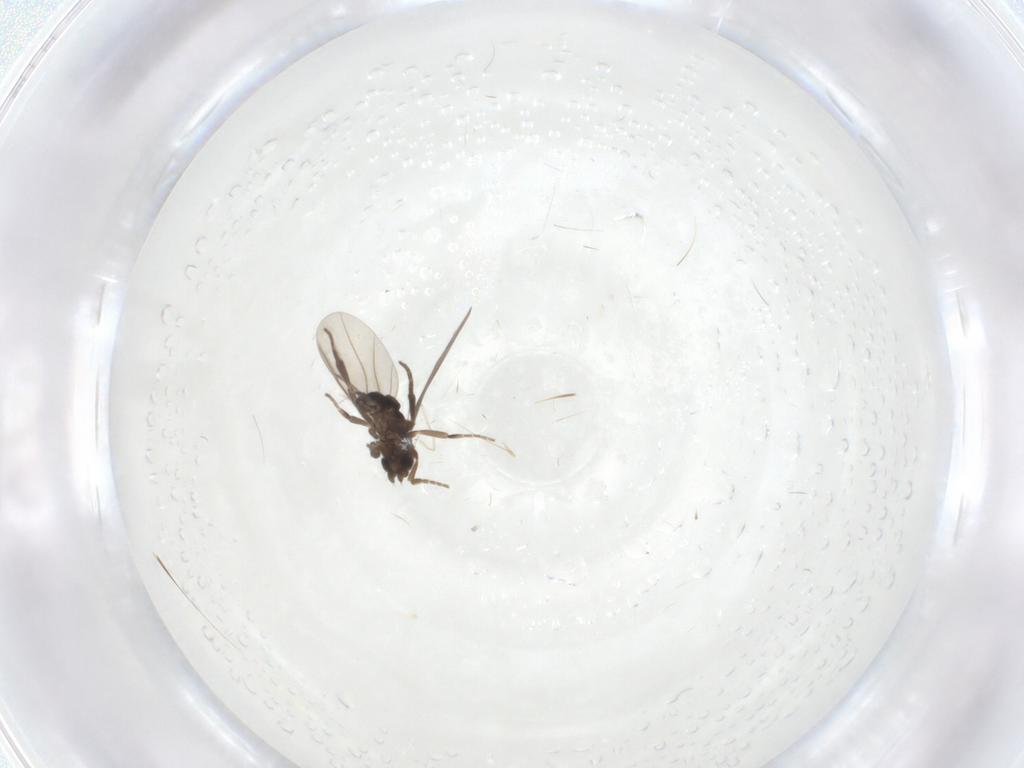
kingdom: Animalia
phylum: Arthropoda
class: Insecta
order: Diptera
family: Phoridae
